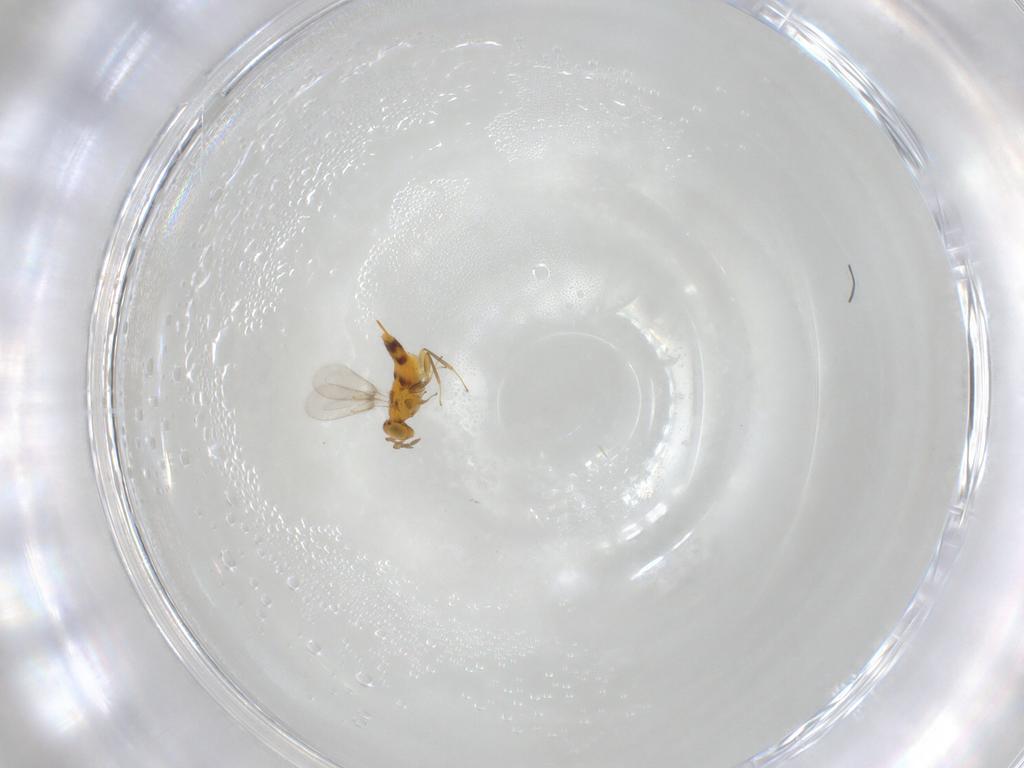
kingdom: Animalia
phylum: Arthropoda
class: Insecta
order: Hymenoptera
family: Aphelinidae
